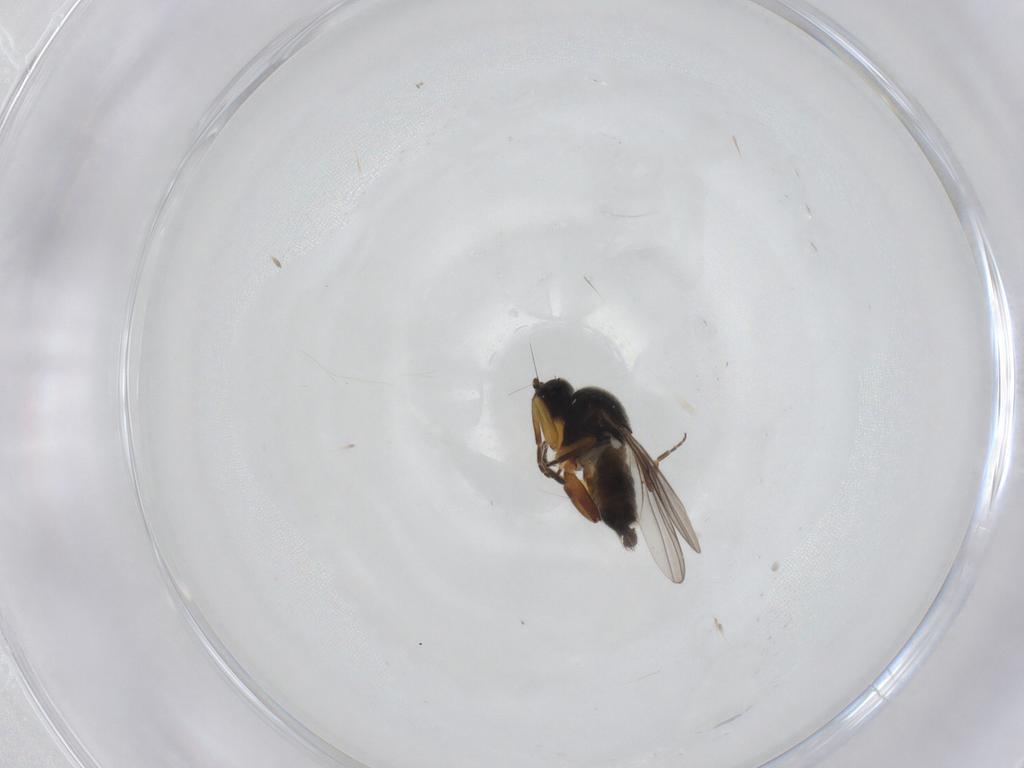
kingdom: Animalia
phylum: Arthropoda
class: Insecta
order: Diptera
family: Hybotidae
